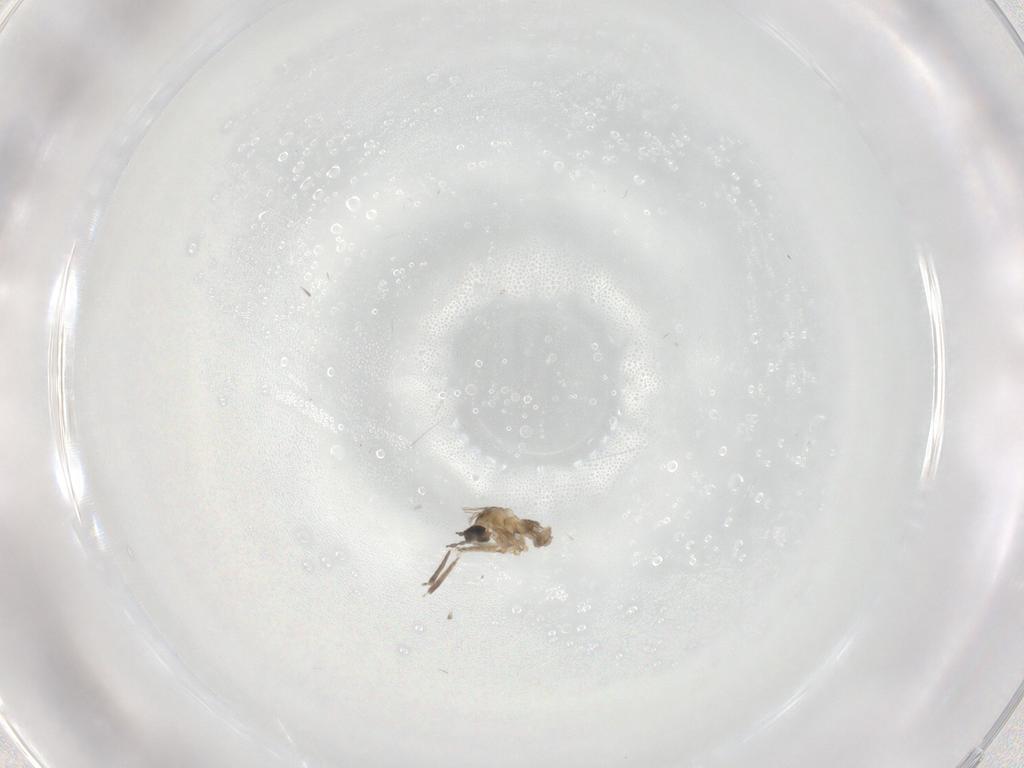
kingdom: Animalia
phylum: Arthropoda
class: Insecta
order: Diptera
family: Cecidomyiidae
